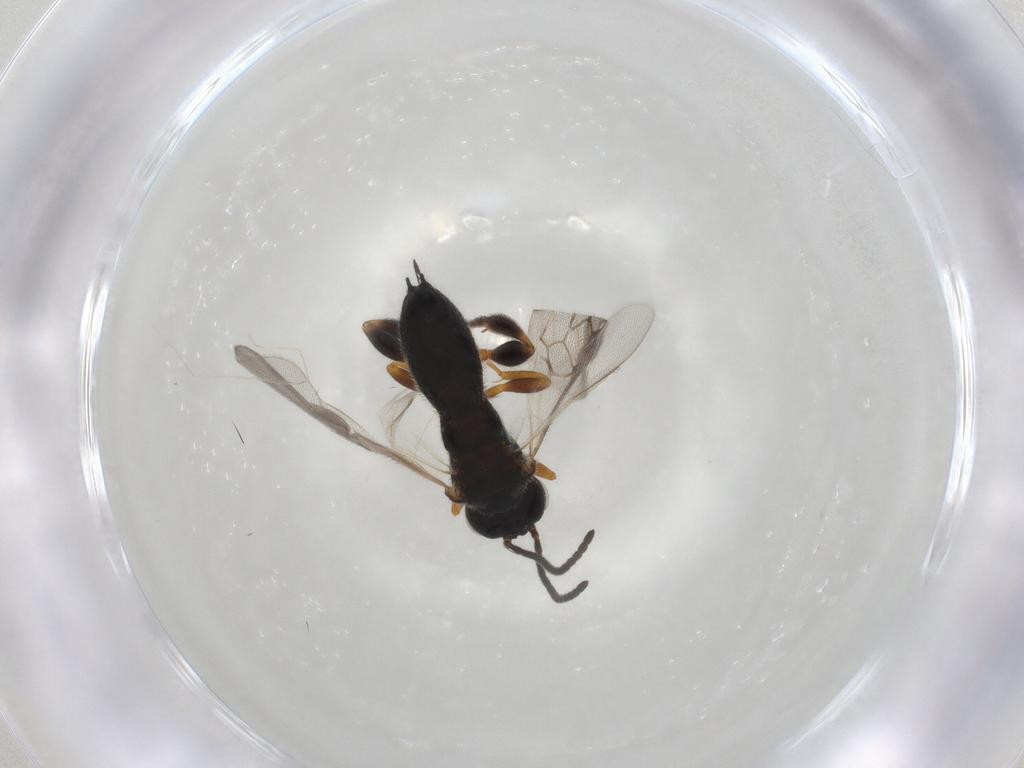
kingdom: Animalia
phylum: Arthropoda
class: Insecta
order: Hymenoptera
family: Braconidae
